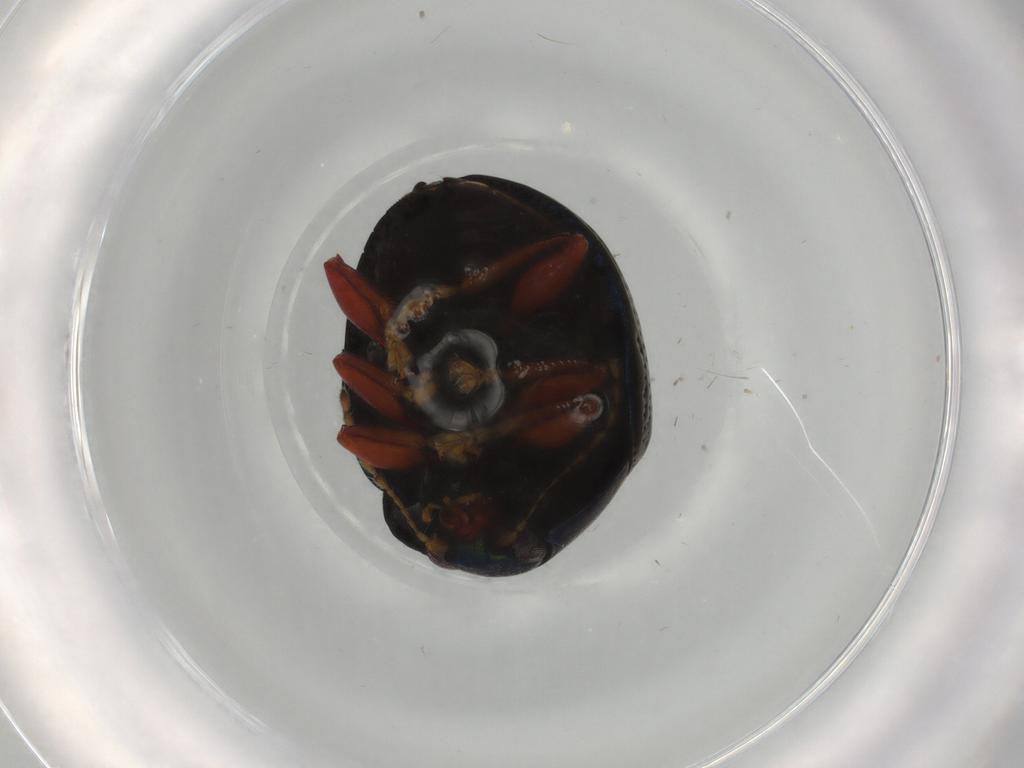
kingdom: Animalia
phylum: Arthropoda
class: Insecta
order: Coleoptera
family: Chrysomelidae
